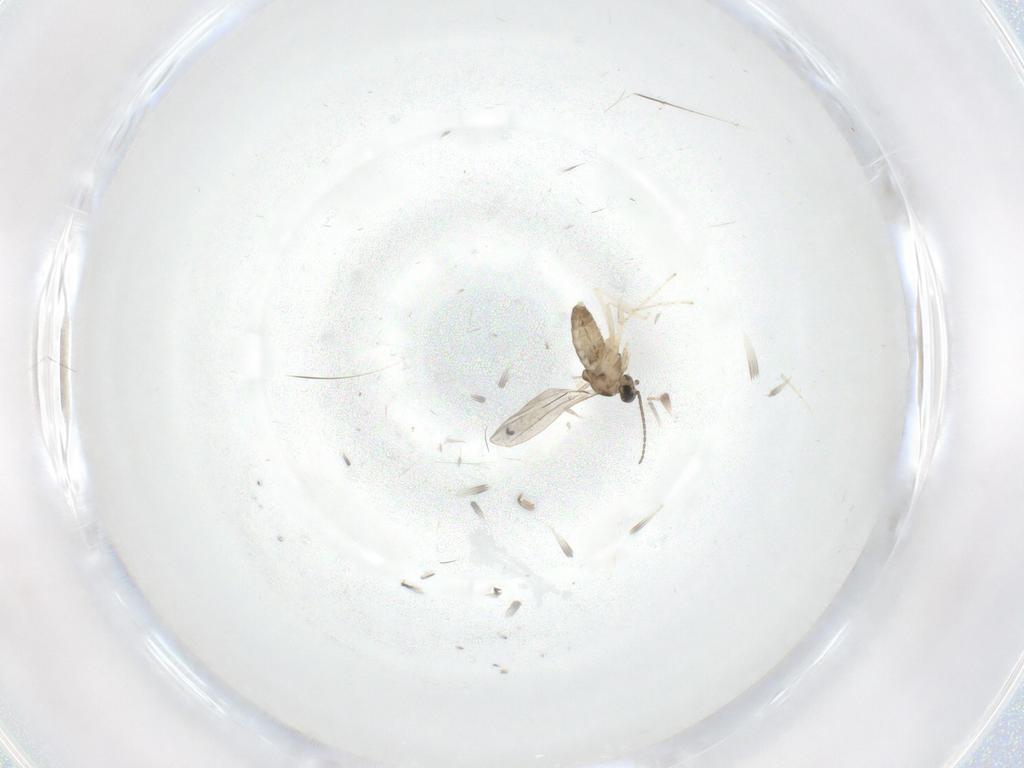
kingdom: Animalia
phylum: Arthropoda
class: Insecta
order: Diptera
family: Cecidomyiidae
